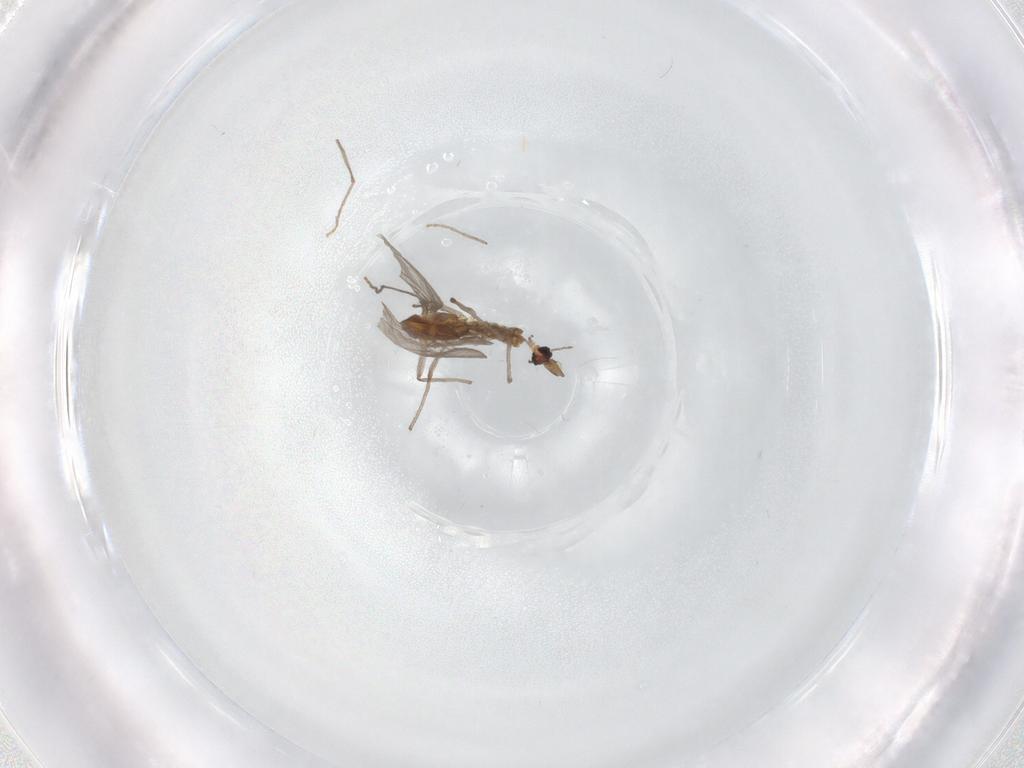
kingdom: Animalia
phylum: Arthropoda
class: Insecta
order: Diptera
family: Chironomidae
